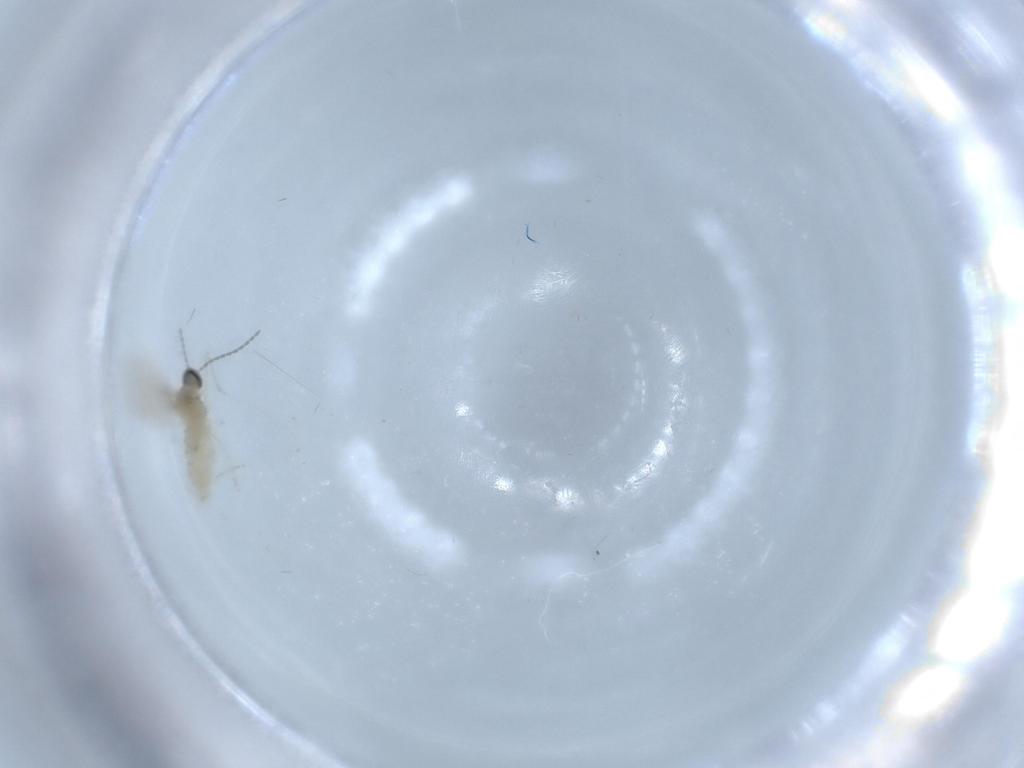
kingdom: Animalia
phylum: Arthropoda
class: Insecta
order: Diptera
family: Cecidomyiidae
